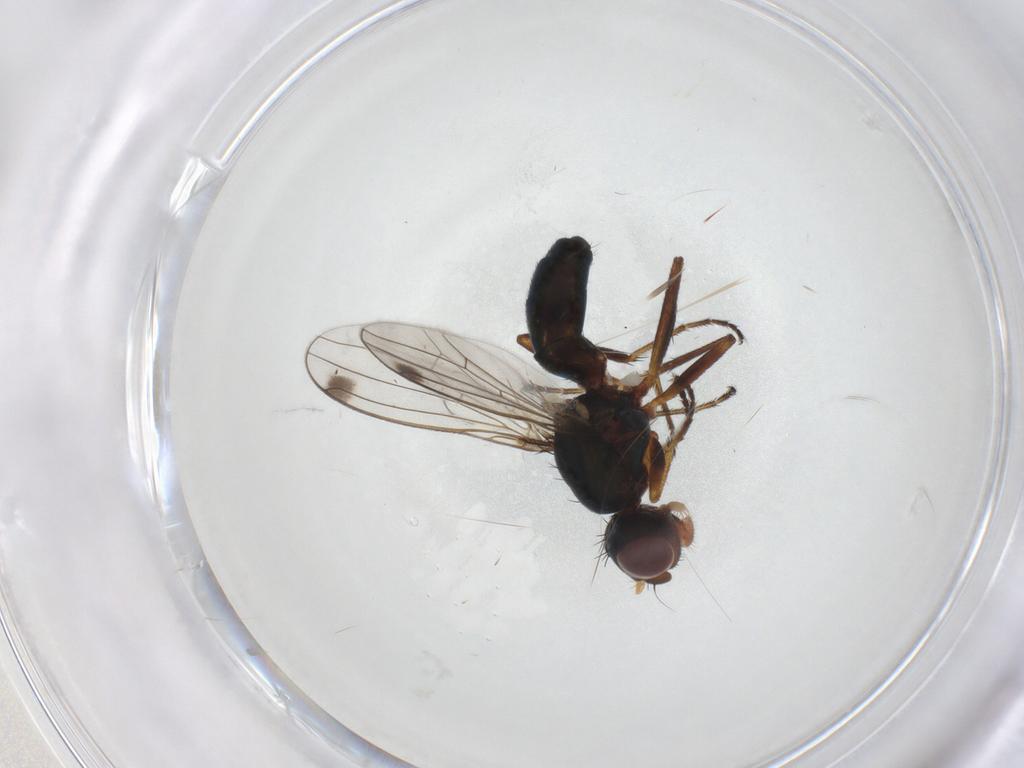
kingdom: Animalia
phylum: Arthropoda
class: Insecta
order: Diptera
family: Sepsidae
